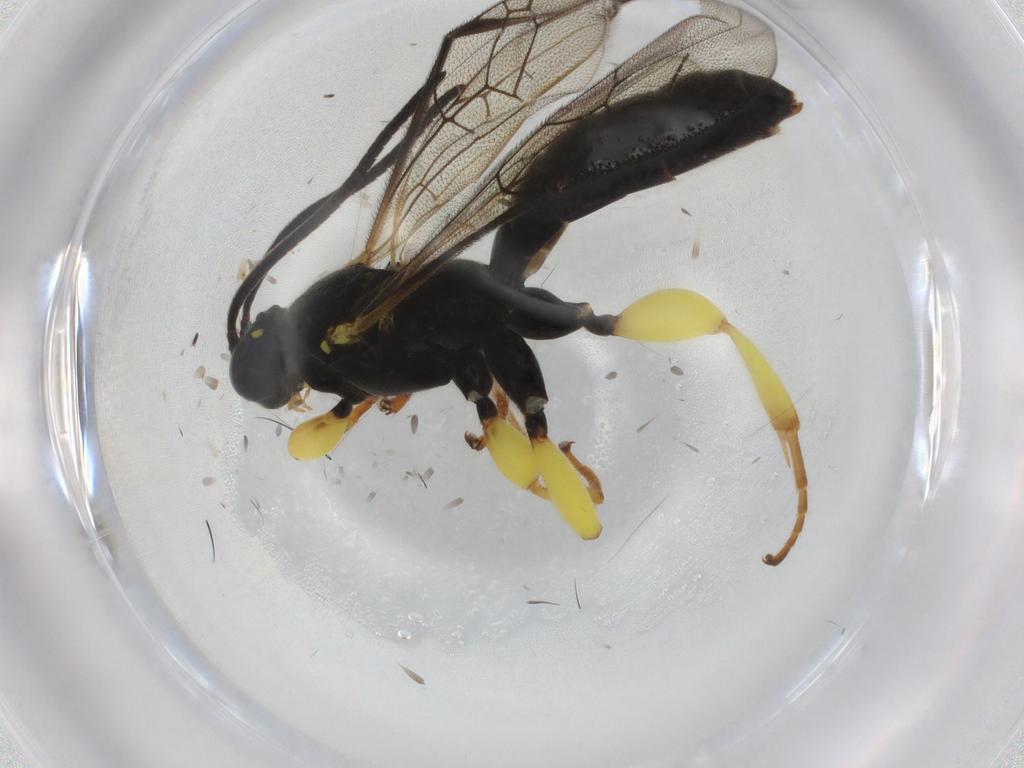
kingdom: Animalia
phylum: Arthropoda
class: Insecta
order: Hymenoptera
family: Ichneumonidae
